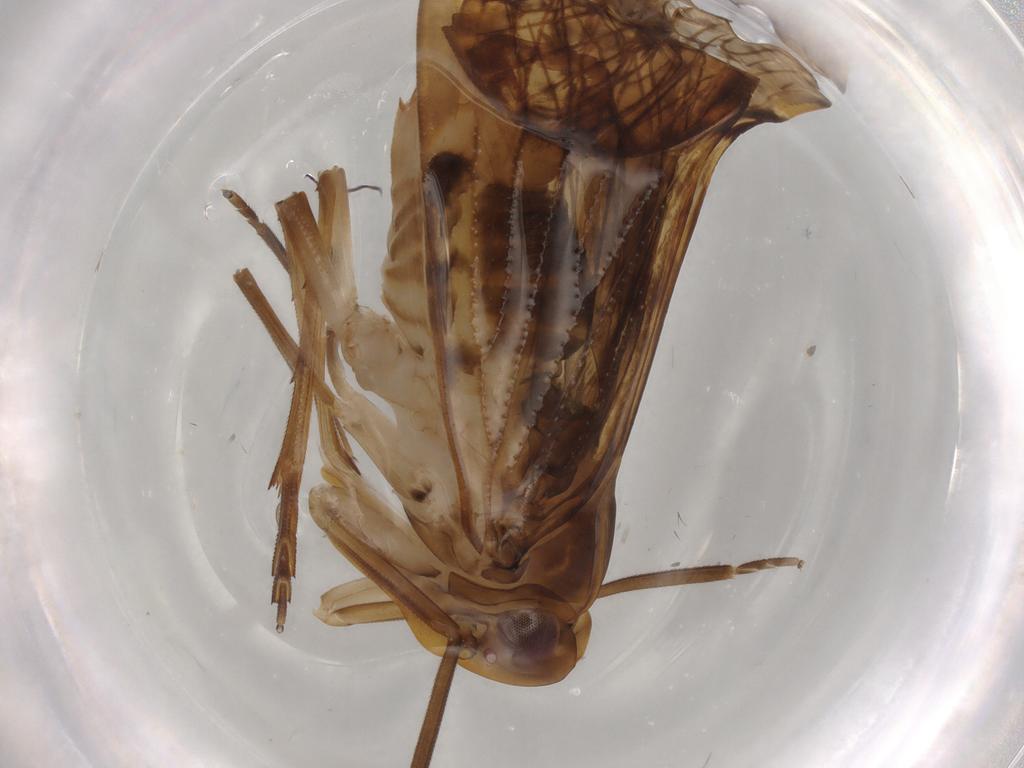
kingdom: Animalia
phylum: Arthropoda
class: Insecta
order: Hemiptera
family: Cixiidae
